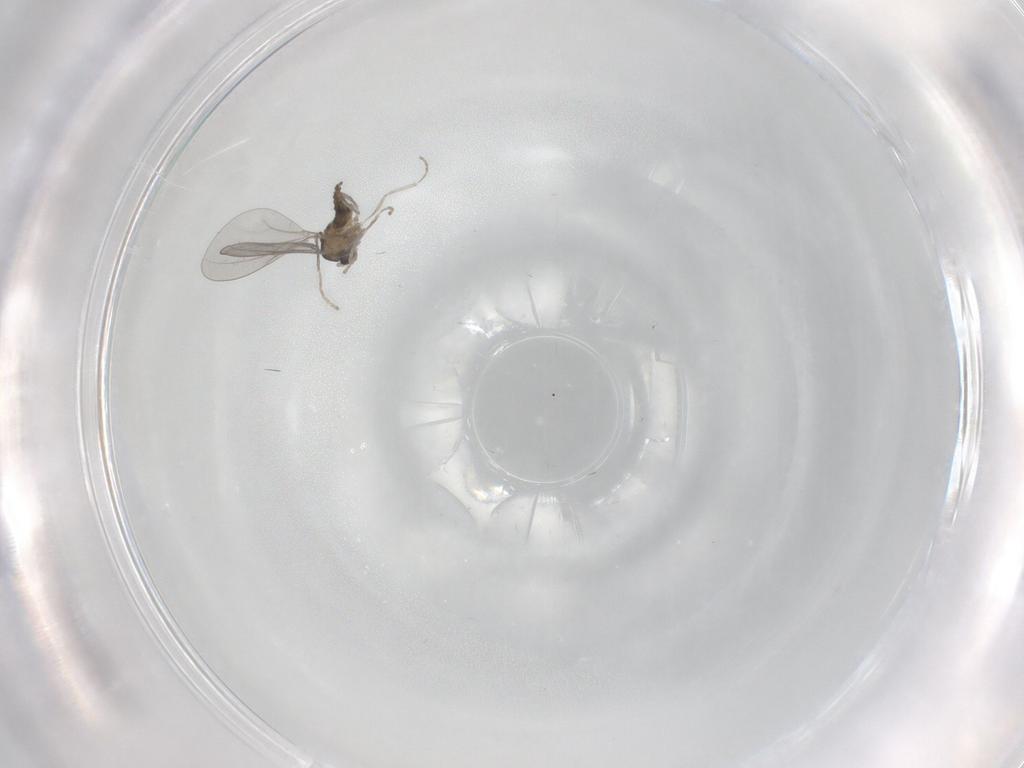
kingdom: Animalia
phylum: Arthropoda
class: Insecta
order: Diptera
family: Cecidomyiidae
